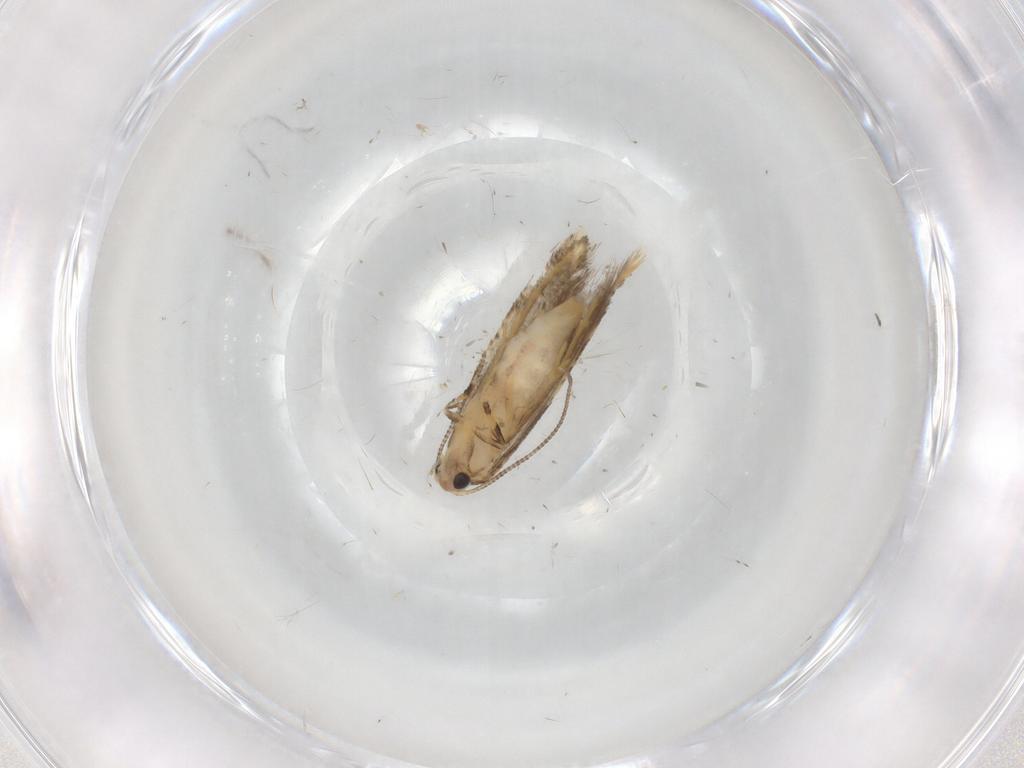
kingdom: Animalia
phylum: Arthropoda
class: Insecta
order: Lepidoptera
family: Tineidae
